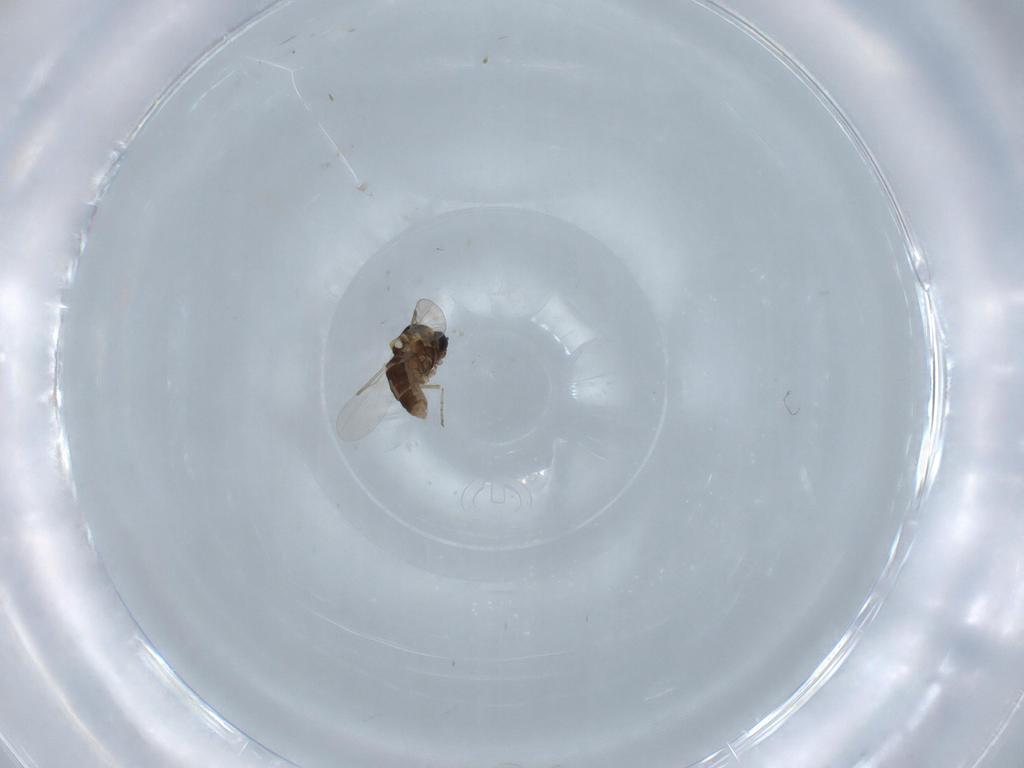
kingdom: Animalia
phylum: Arthropoda
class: Insecta
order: Diptera
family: Ceratopogonidae
